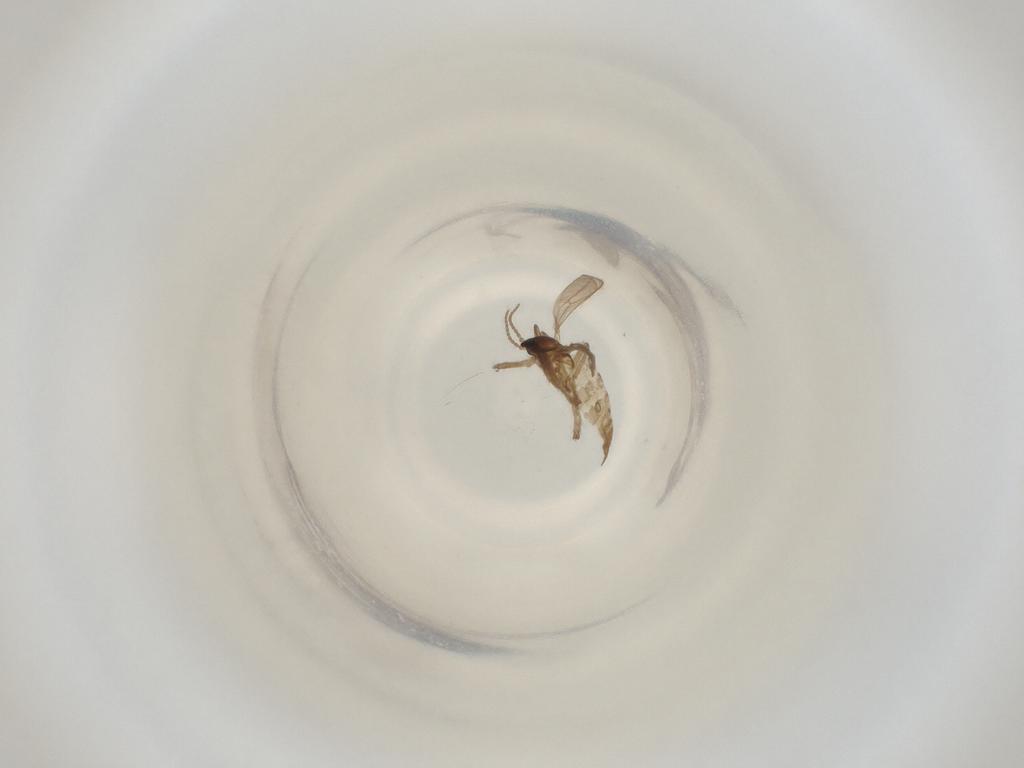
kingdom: Animalia
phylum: Arthropoda
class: Insecta
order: Diptera
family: Cecidomyiidae
